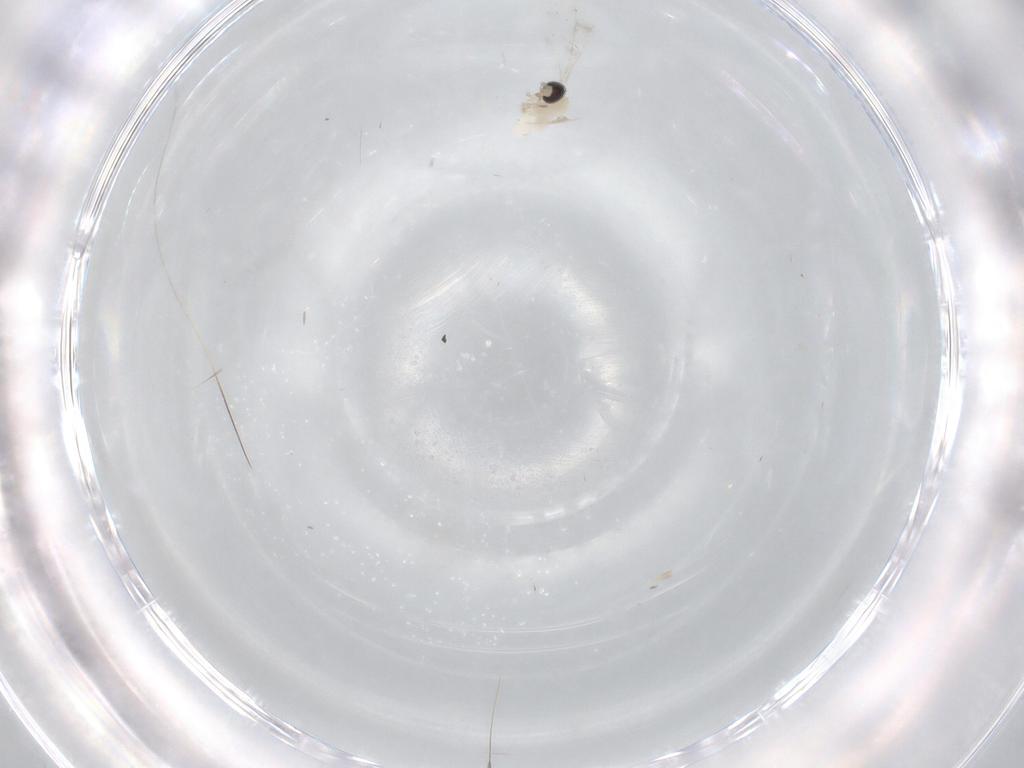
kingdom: Animalia
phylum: Arthropoda
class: Insecta
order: Diptera
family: Cecidomyiidae
